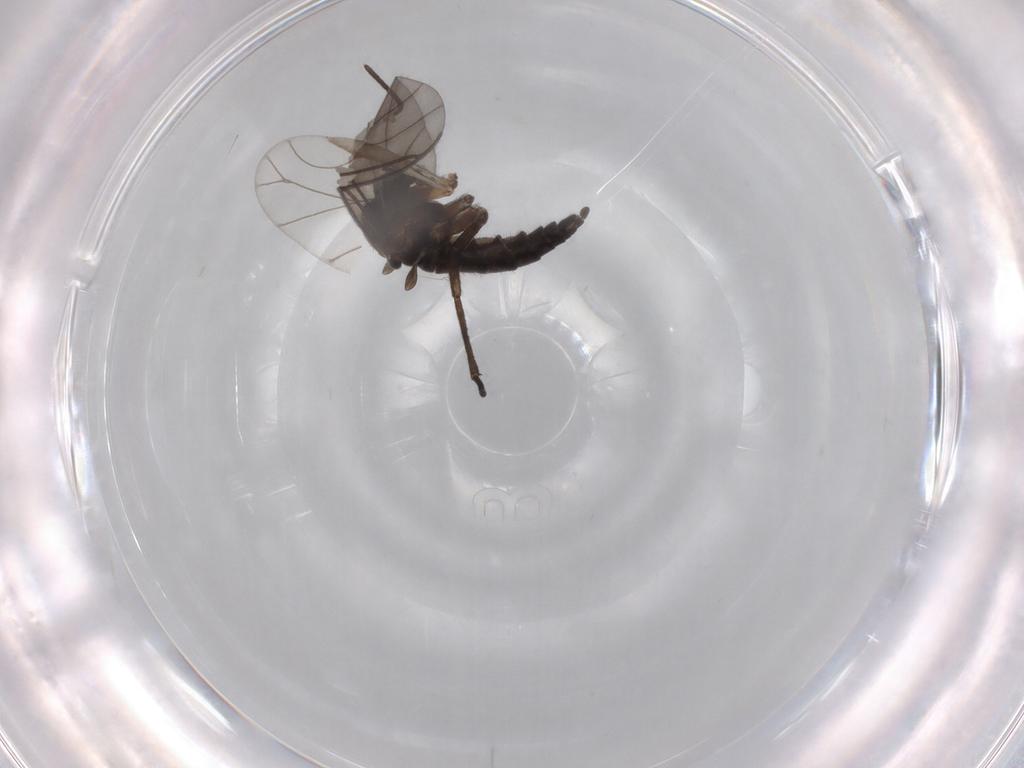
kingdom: Animalia
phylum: Arthropoda
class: Insecta
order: Diptera
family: Sciaridae
